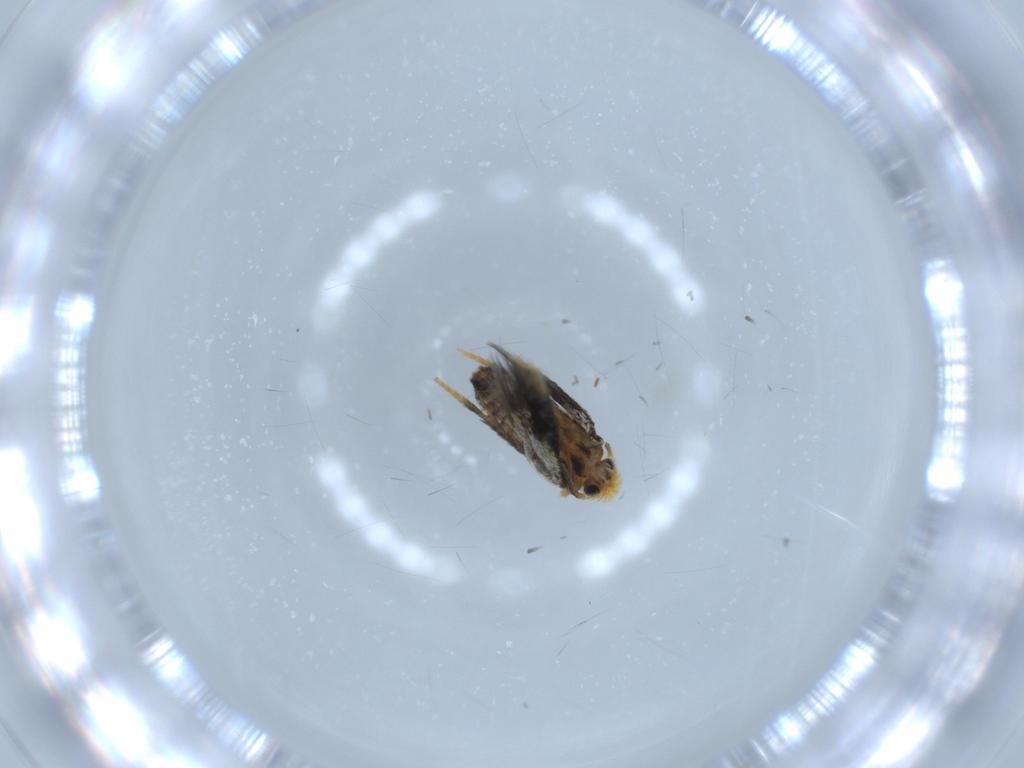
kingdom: Animalia
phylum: Arthropoda
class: Insecta
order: Lepidoptera
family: Nepticulidae
